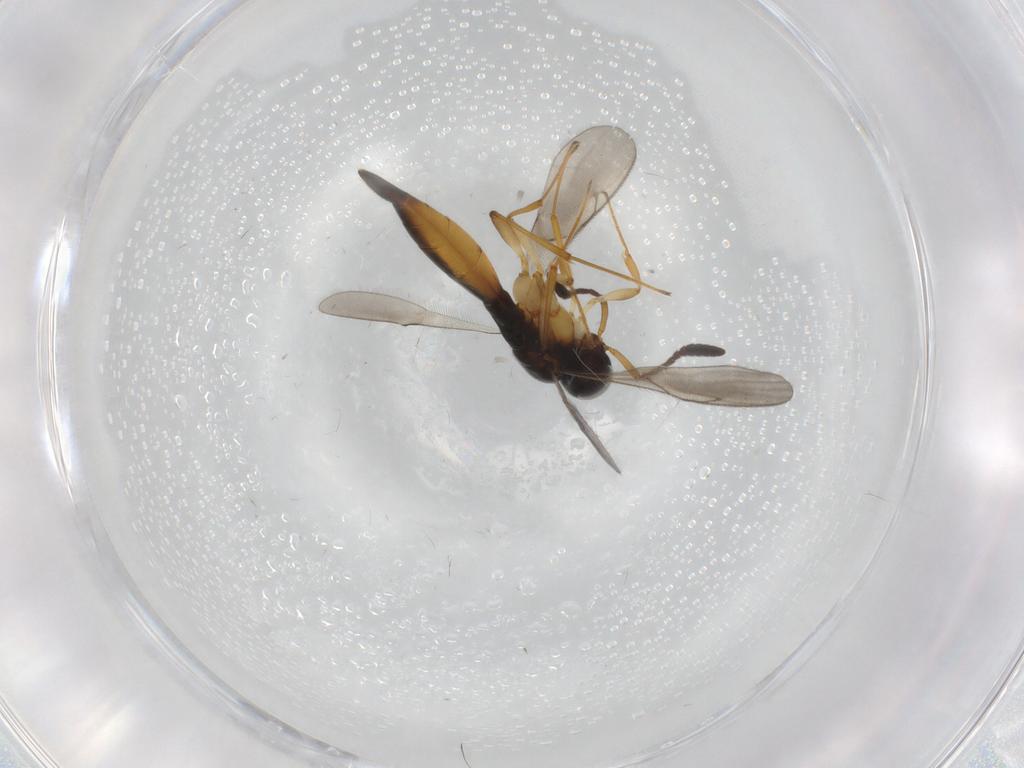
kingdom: Animalia
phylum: Arthropoda
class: Insecta
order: Hymenoptera
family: Scelionidae
